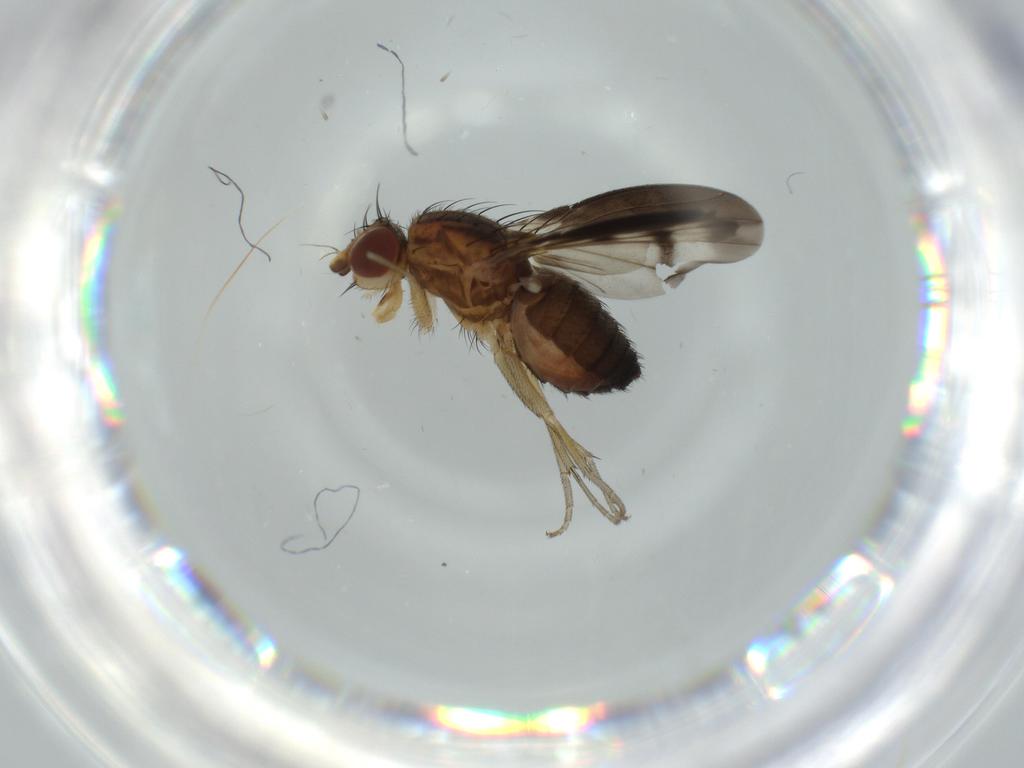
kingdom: Animalia
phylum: Arthropoda
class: Insecta
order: Diptera
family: Heleomyzidae
